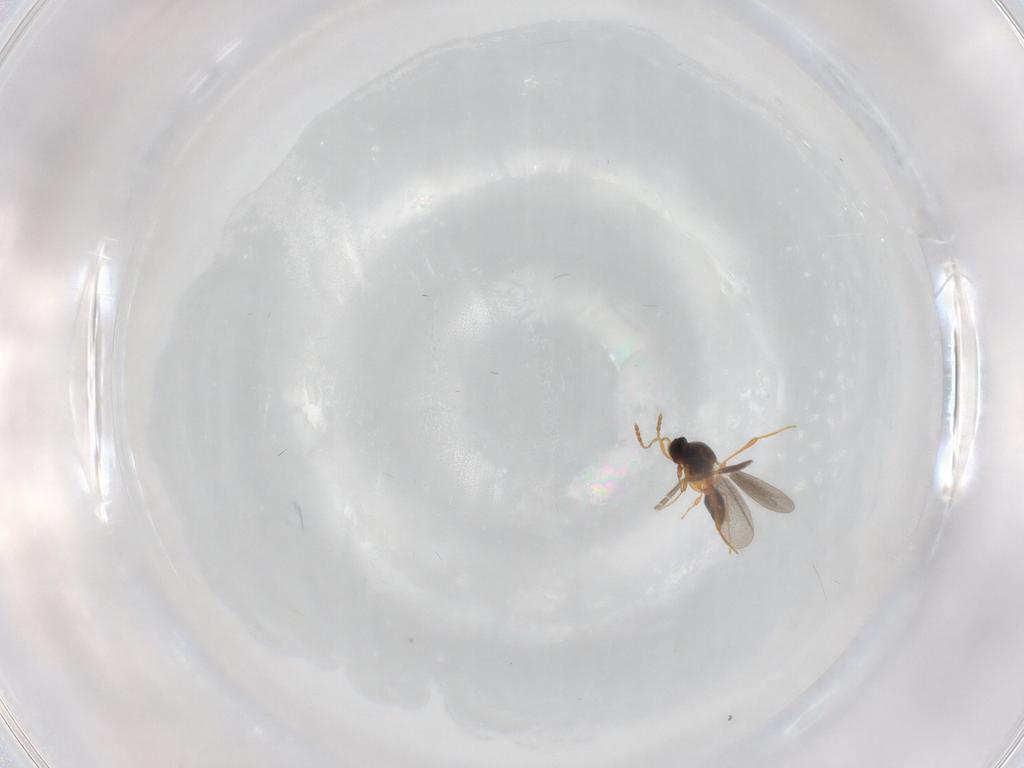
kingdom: Animalia
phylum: Arthropoda
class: Insecta
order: Hymenoptera
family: Platygastridae
